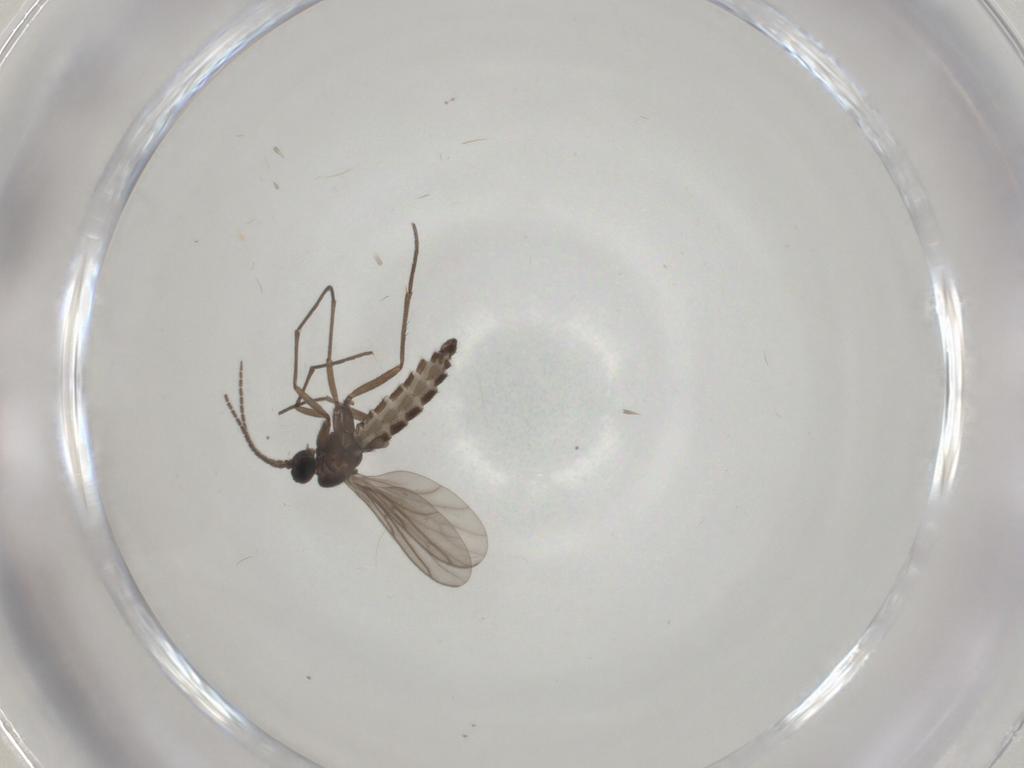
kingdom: Animalia
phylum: Arthropoda
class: Insecta
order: Diptera
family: Sciaridae
